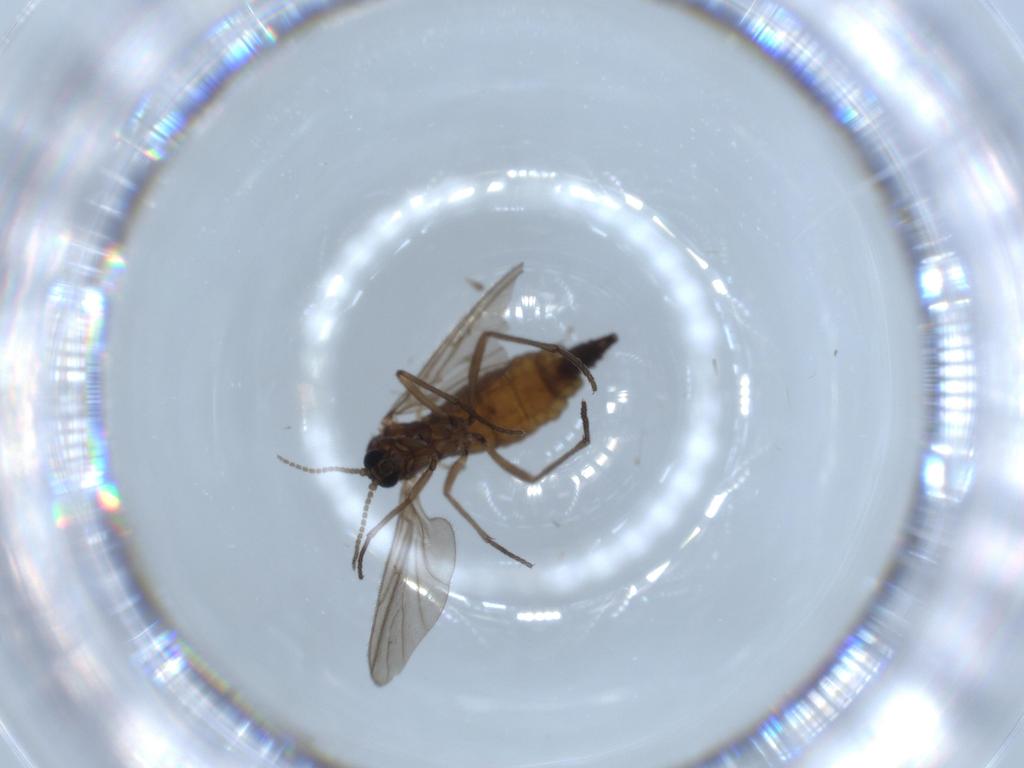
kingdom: Animalia
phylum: Arthropoda
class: Insecta
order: Diptera
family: Sciaridae
